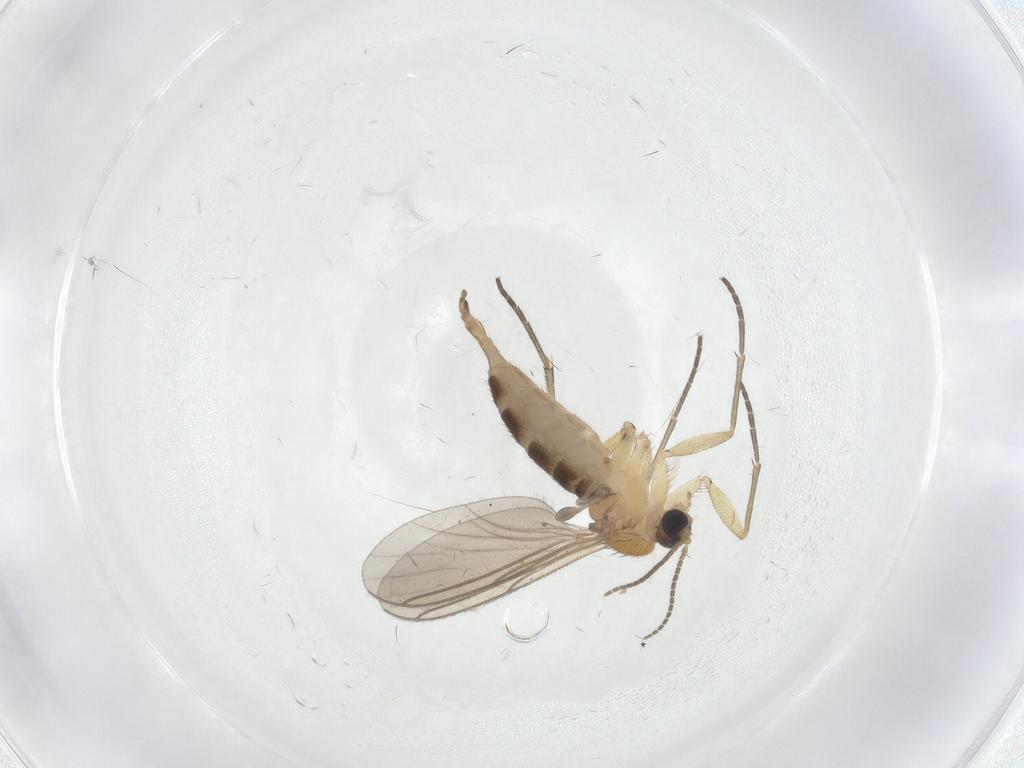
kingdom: Animalia
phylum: Arthropoda
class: Insecta
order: Diptera
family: Sciaridae
